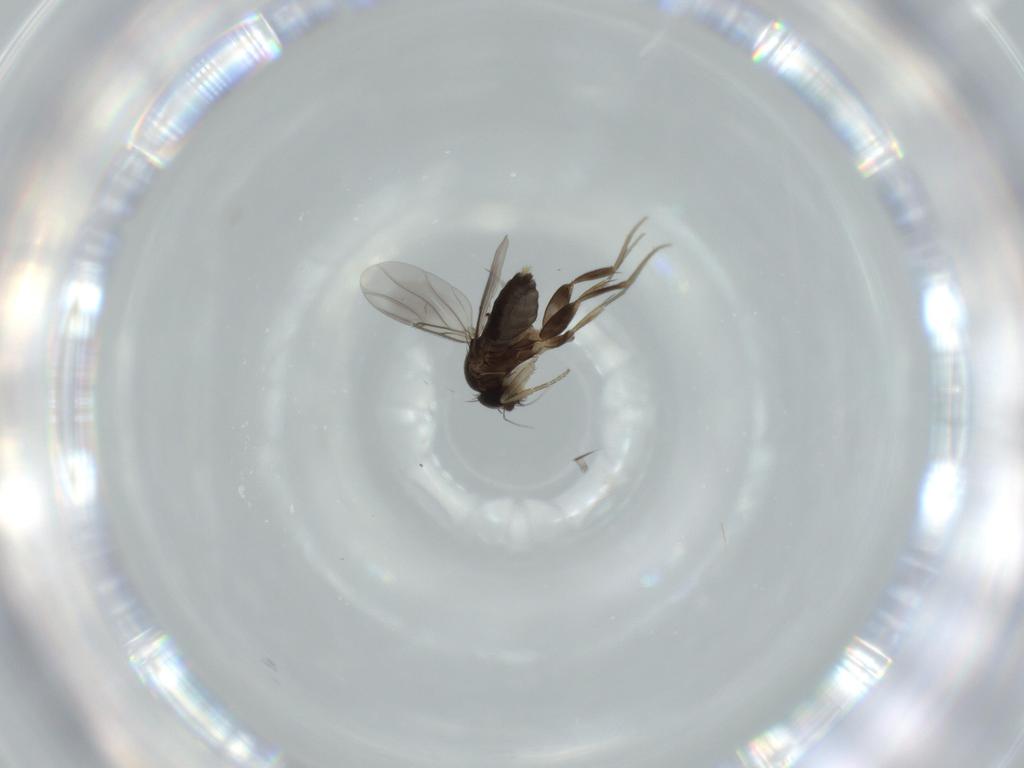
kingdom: Animalia
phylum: Arthropoda
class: Insecta
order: Diptera
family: Phoridae
